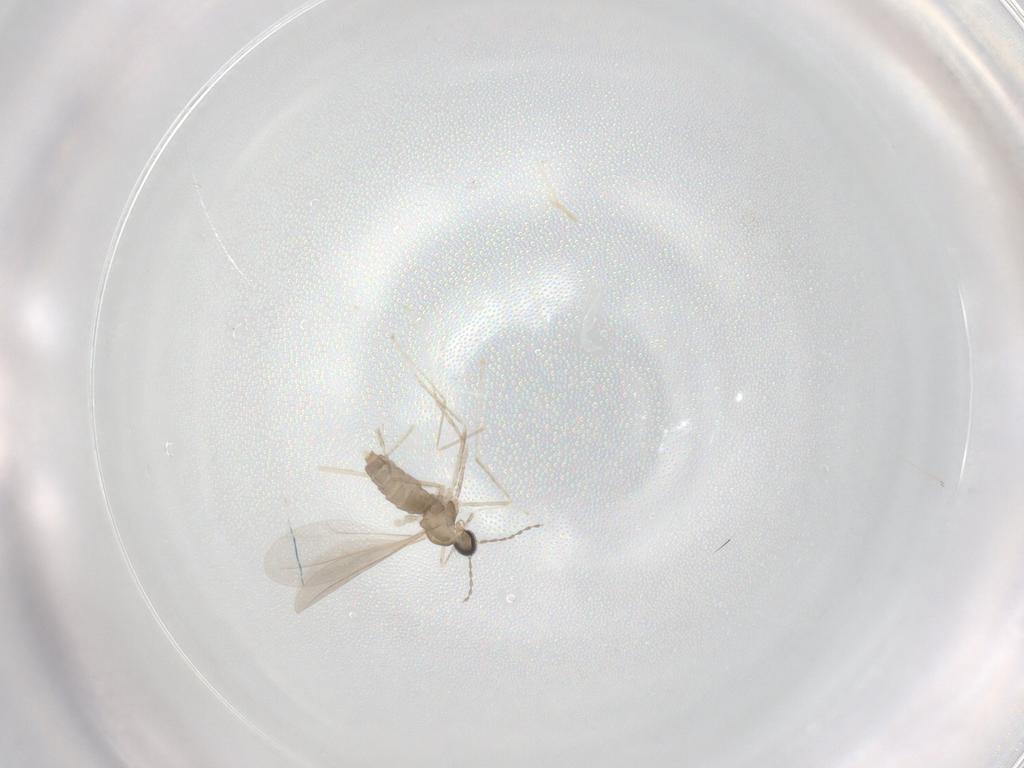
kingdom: Animalia
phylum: Arthropoda
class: Insecta
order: Diptera
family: Cecidomyiidae
